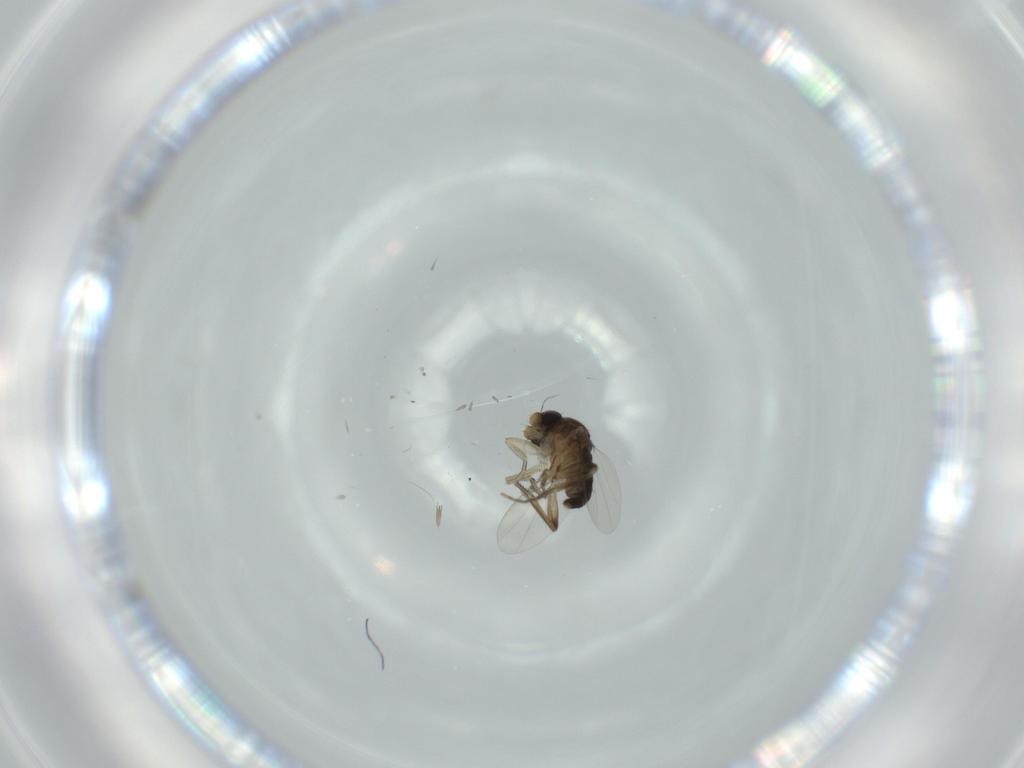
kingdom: Animalia
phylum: Arthropoda
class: Insecta
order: Diptera
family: Phoridae
